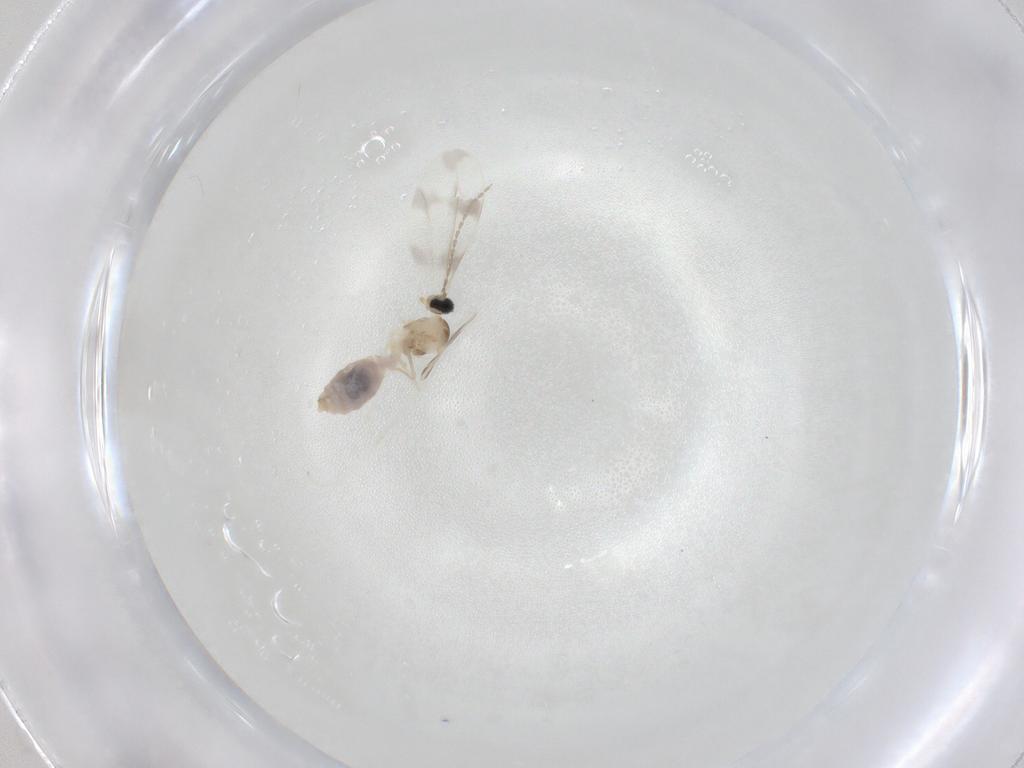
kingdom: Animalia
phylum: Arthropoda
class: Insecta
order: Diptera
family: Cecidomyiidae
